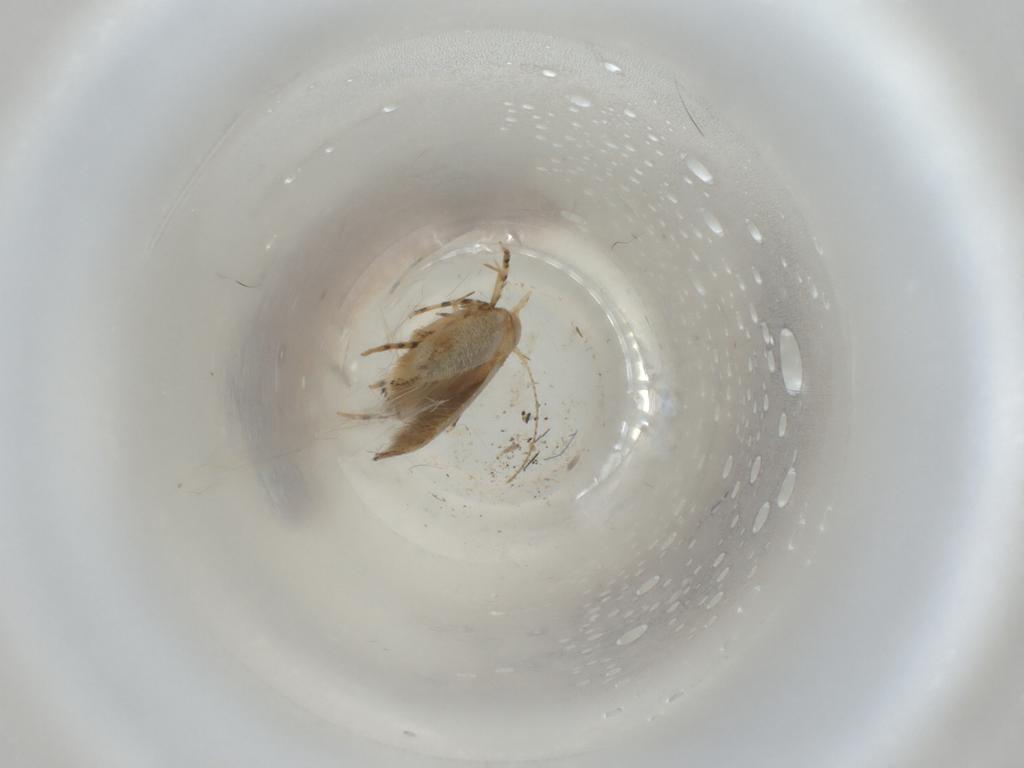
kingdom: Animalia
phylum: Arthropoda
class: Insecta
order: Lepidoptera
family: Cosmopterigidae
